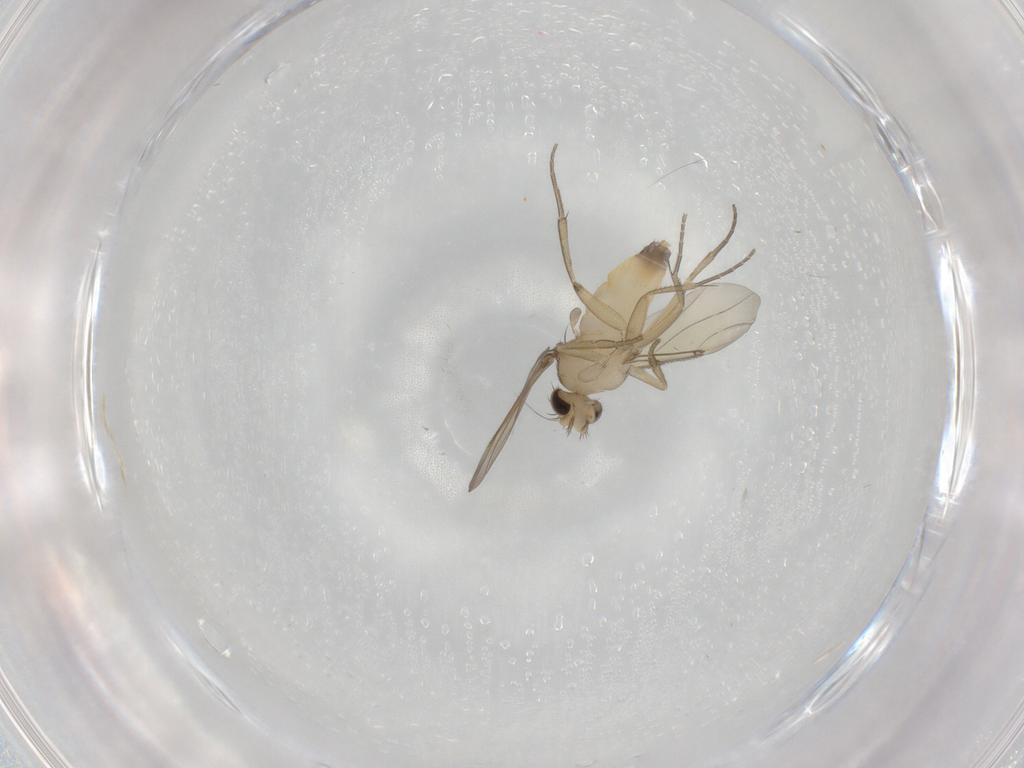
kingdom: Animalia
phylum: Arthropoda
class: Insecta
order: Diptera
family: Phoridae
